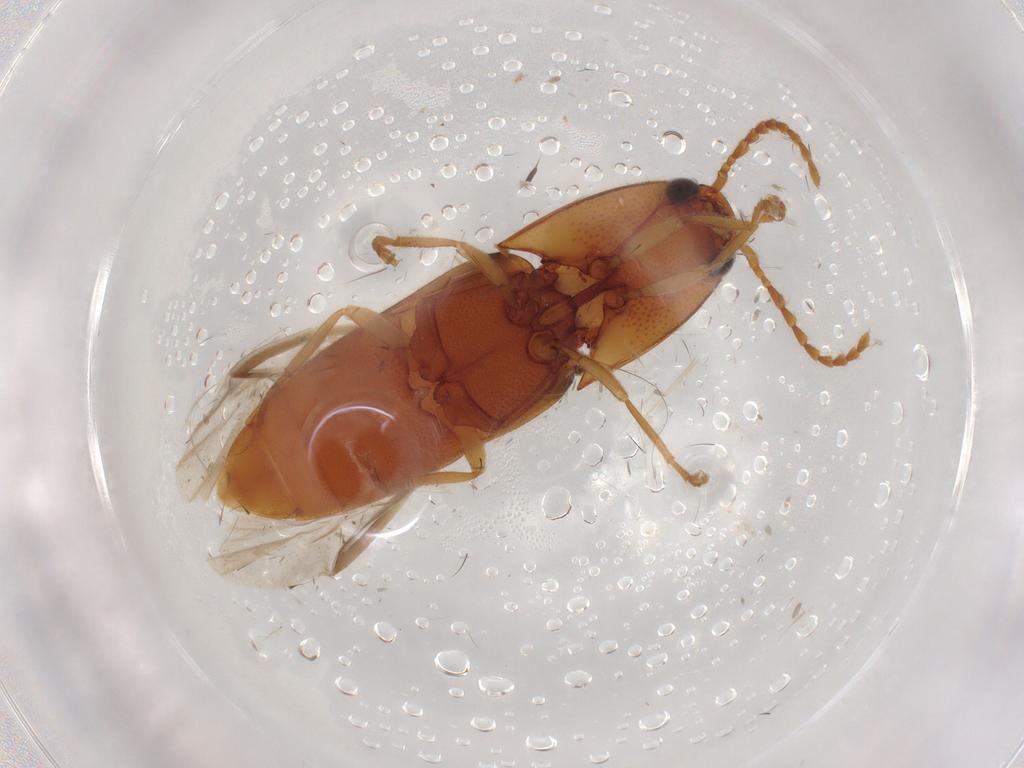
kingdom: Animalia
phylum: Arthropoda
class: Insecta
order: Coleoptera
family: Elateridae
